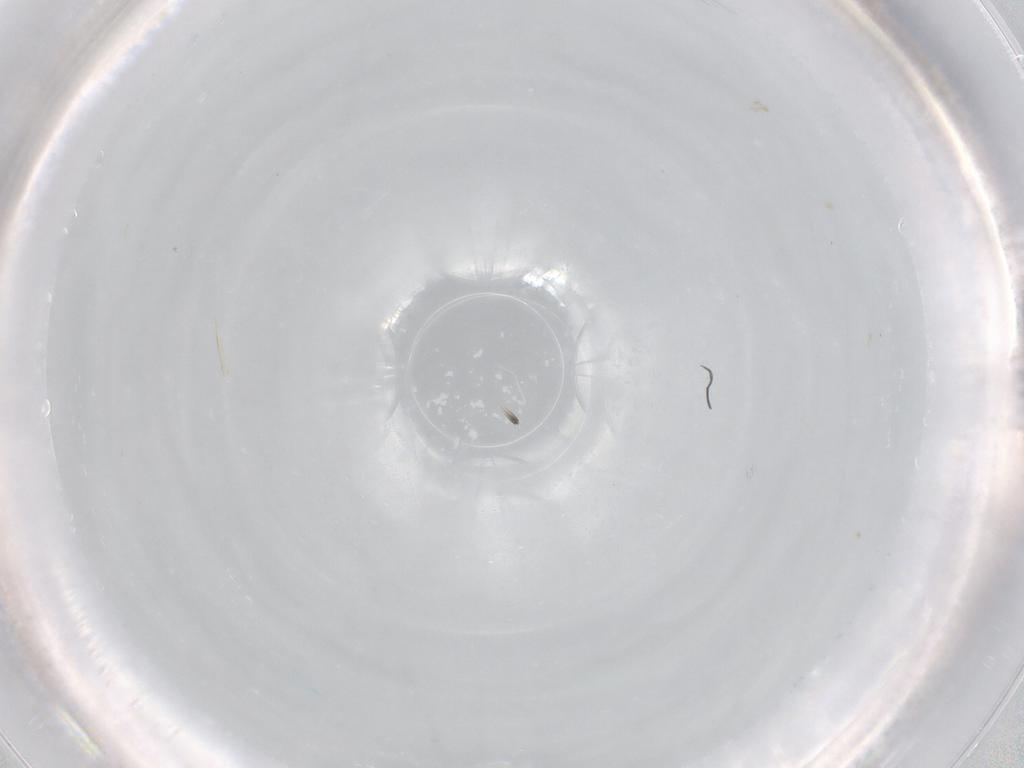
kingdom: Animalia
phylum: Arthropoda
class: Insecta
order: Diptera
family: Cecidomyiidae
